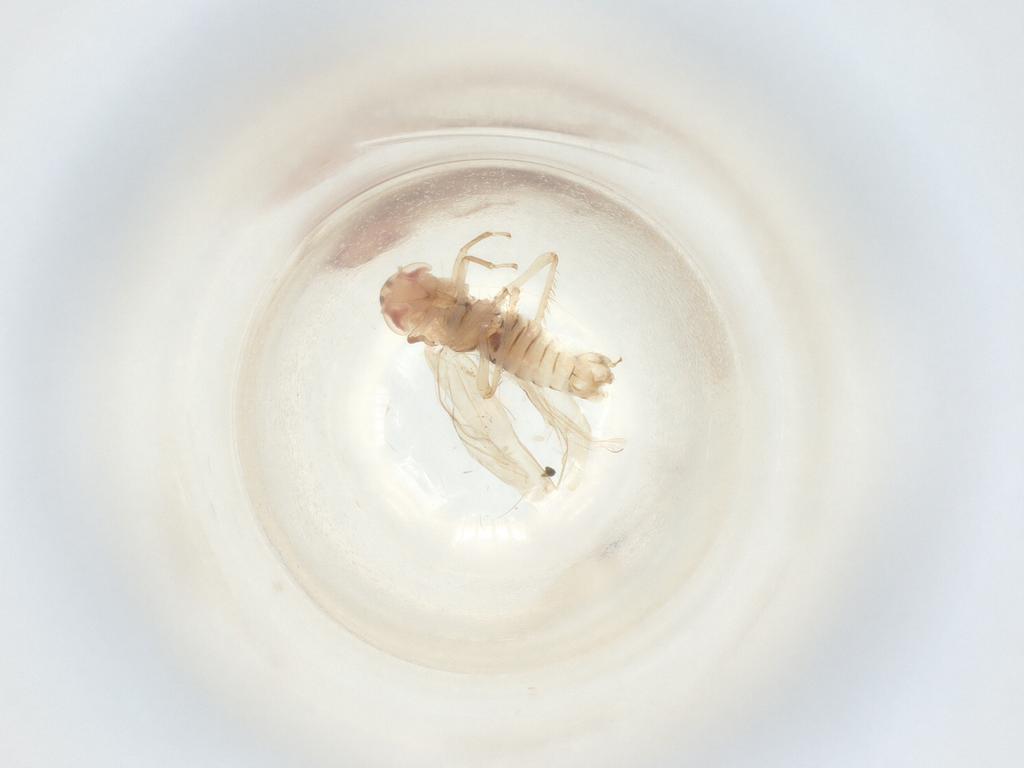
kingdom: Animalia
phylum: Arthropoda
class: Insecta
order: Hemiptera
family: Cicadellidae
